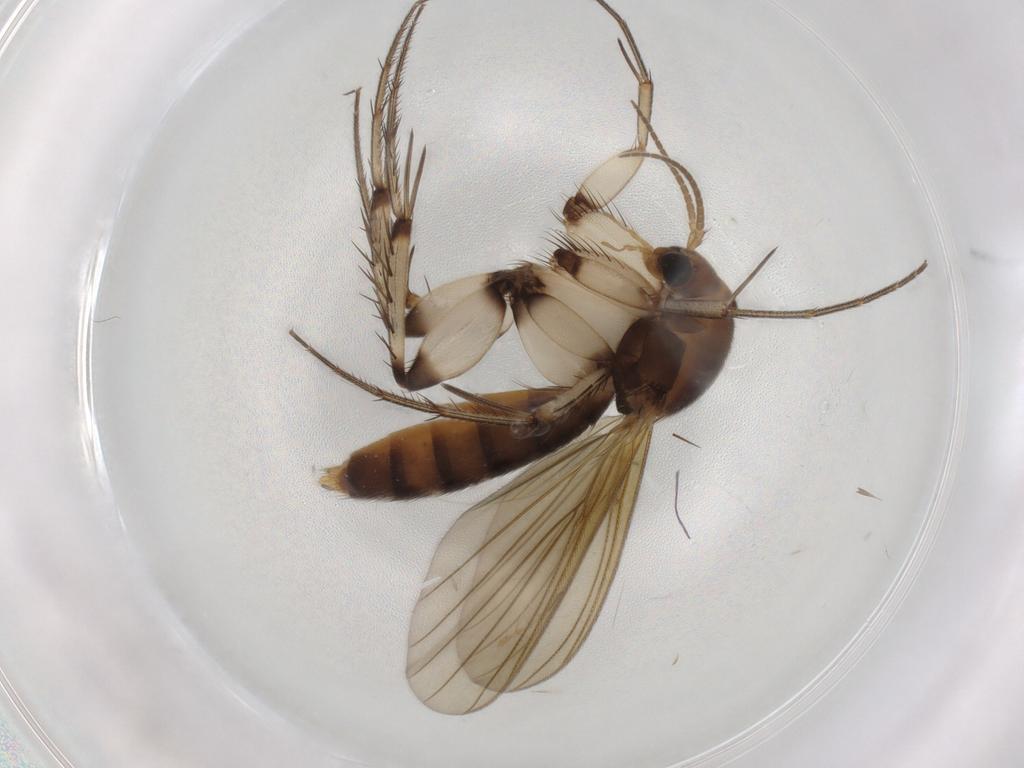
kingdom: Animalia
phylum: Arthropoda
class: Insecta
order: Diptera
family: Mycetophilidae
